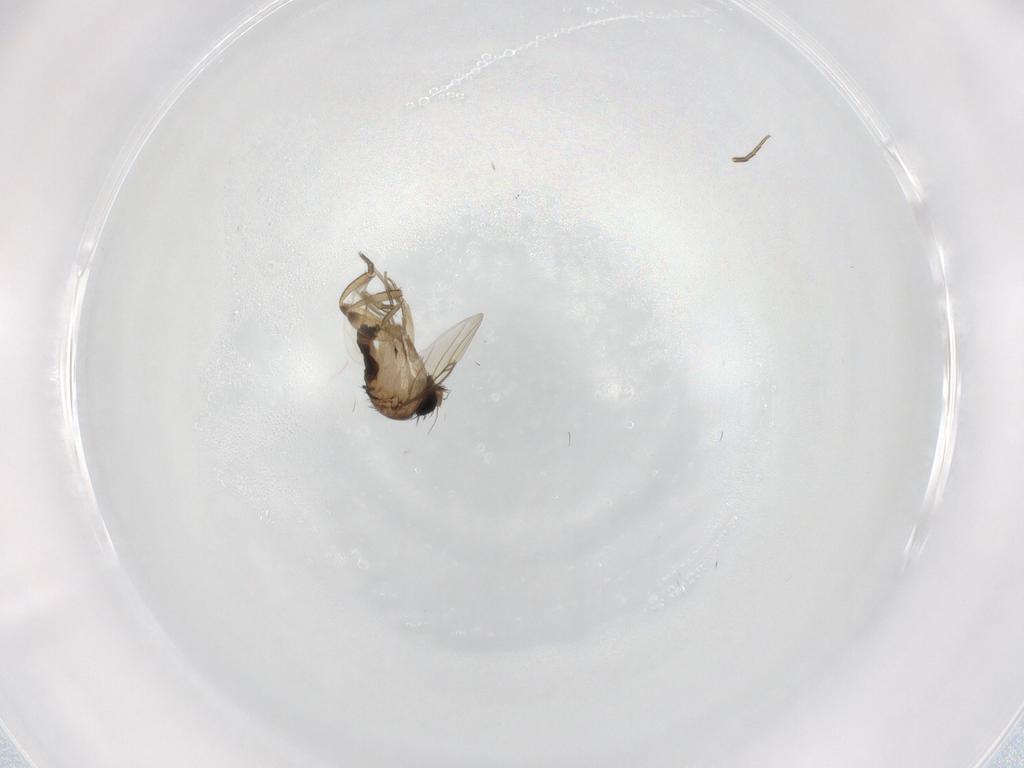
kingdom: Animalia
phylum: Arthropoda
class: Insecta
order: Diptera
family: Phoridae
